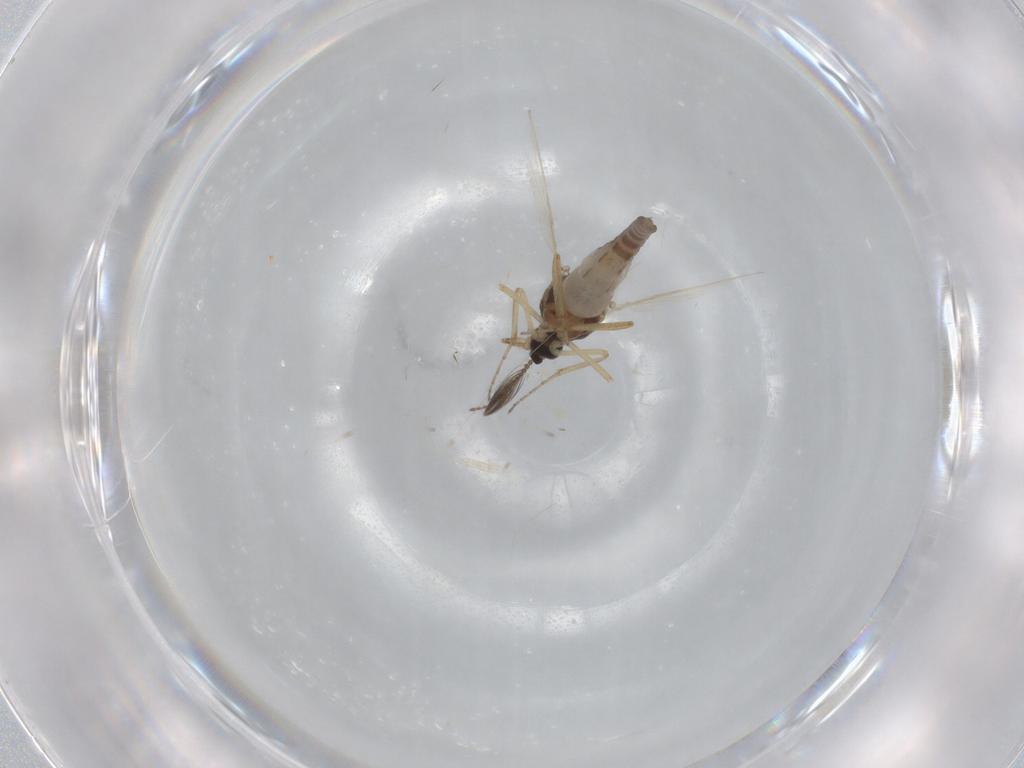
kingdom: Animalia
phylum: Arthropoda
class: Insecta
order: Diptera
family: Ceratopogonidae
